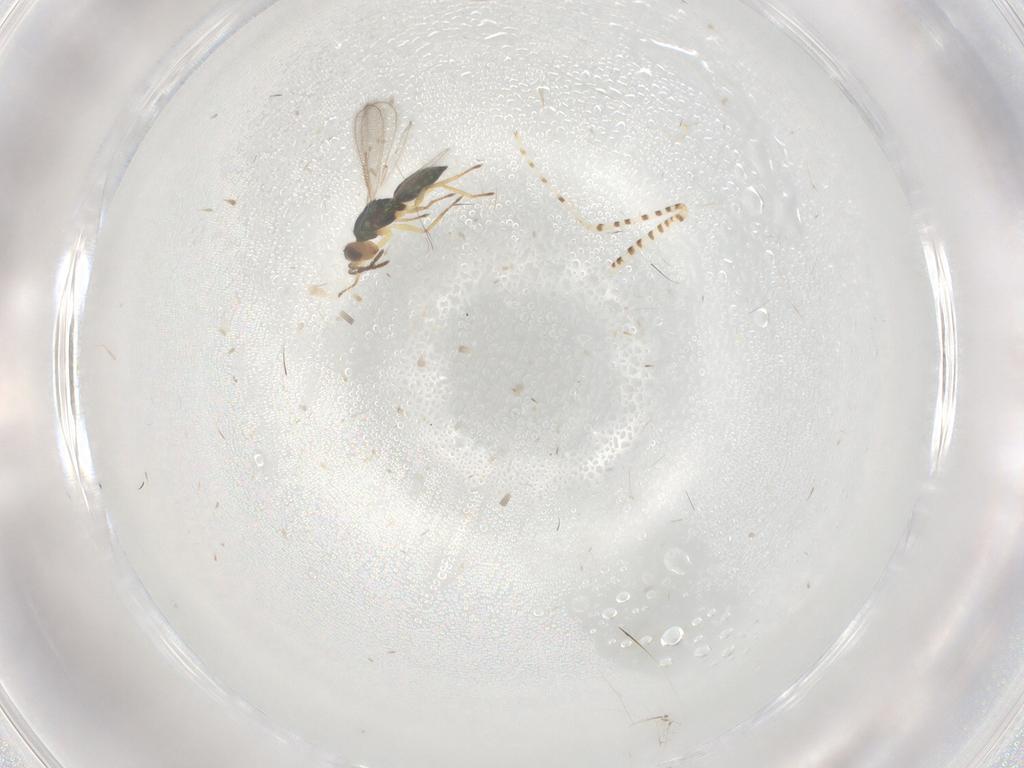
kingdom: Animalia
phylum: Arthropoda
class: Insecta
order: Hymenoptera
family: Eulophidae
